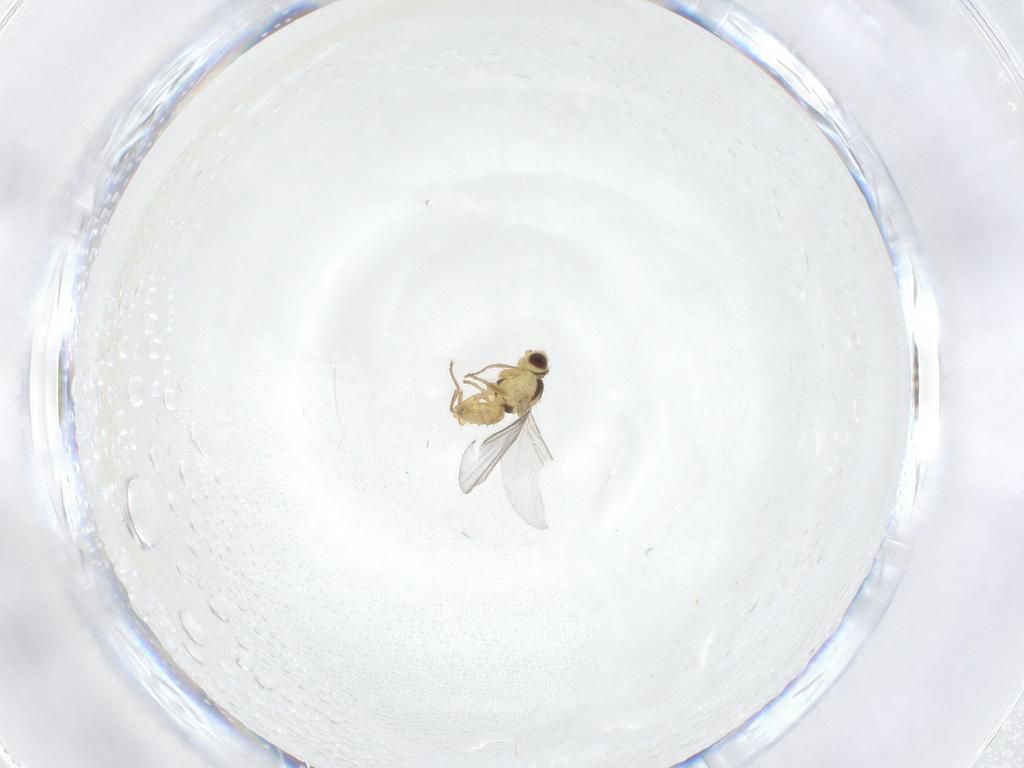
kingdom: Animalia
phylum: Arthropoda
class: Insecta
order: Diptera
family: Agromyzidae
